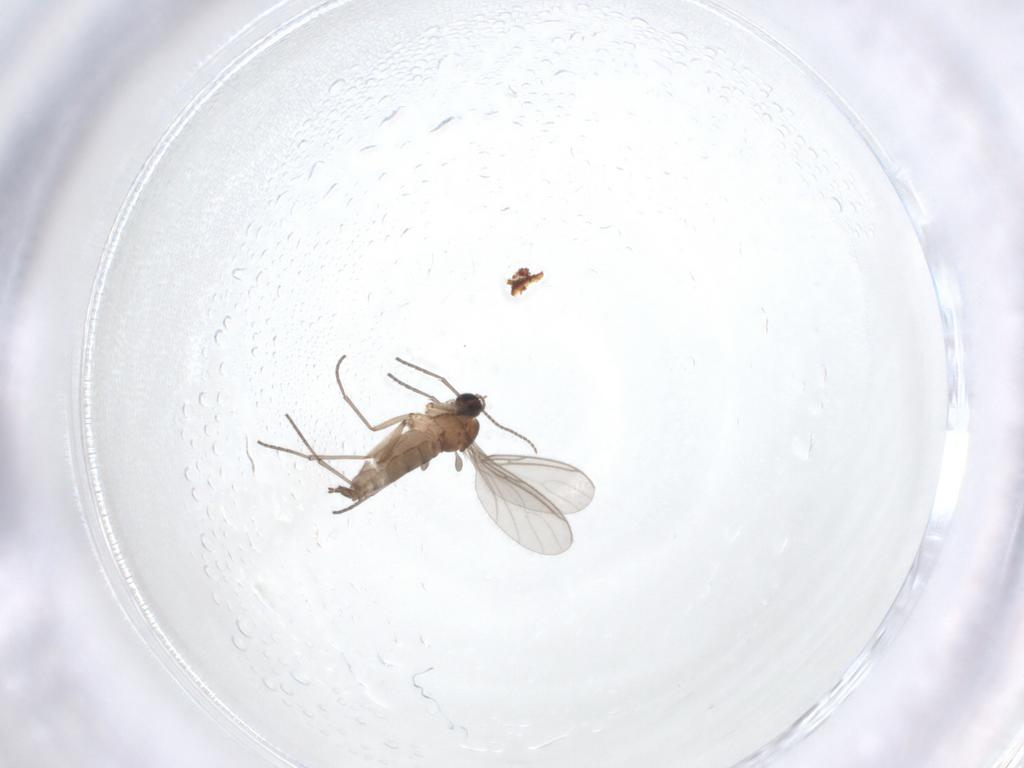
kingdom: Animalia
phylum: Arthropoda
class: Insecta
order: Diptera
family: Sciaridae
